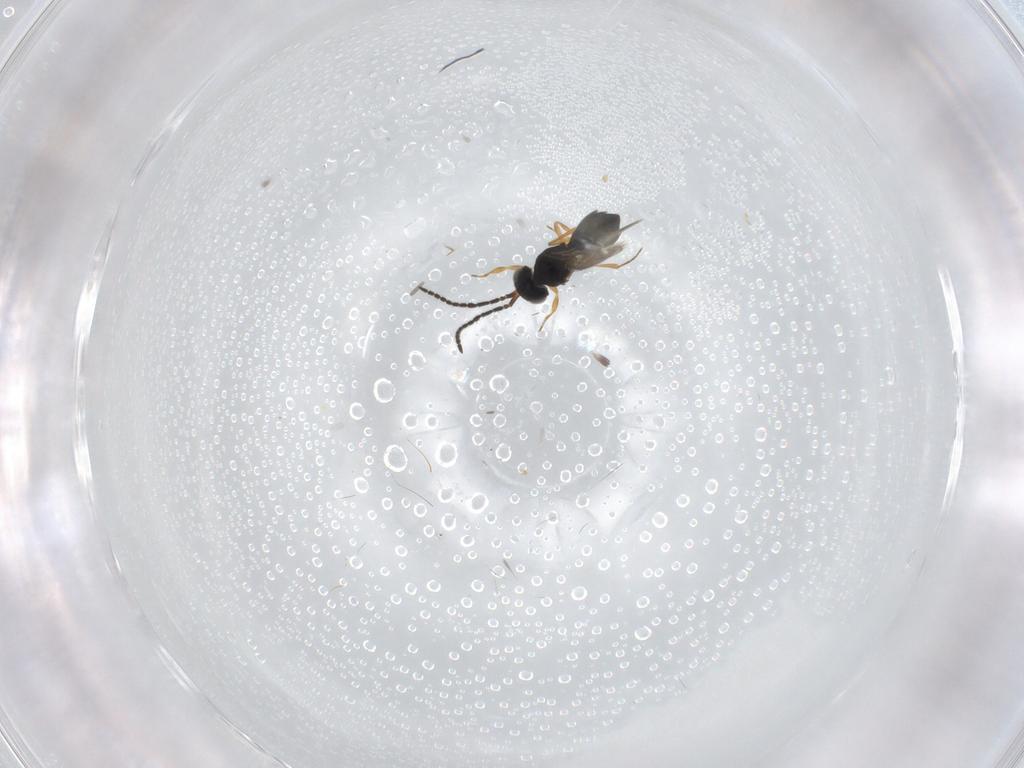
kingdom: Animalia
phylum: Arthropoda
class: Insecta
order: Hymenoptera
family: Scelionidae
